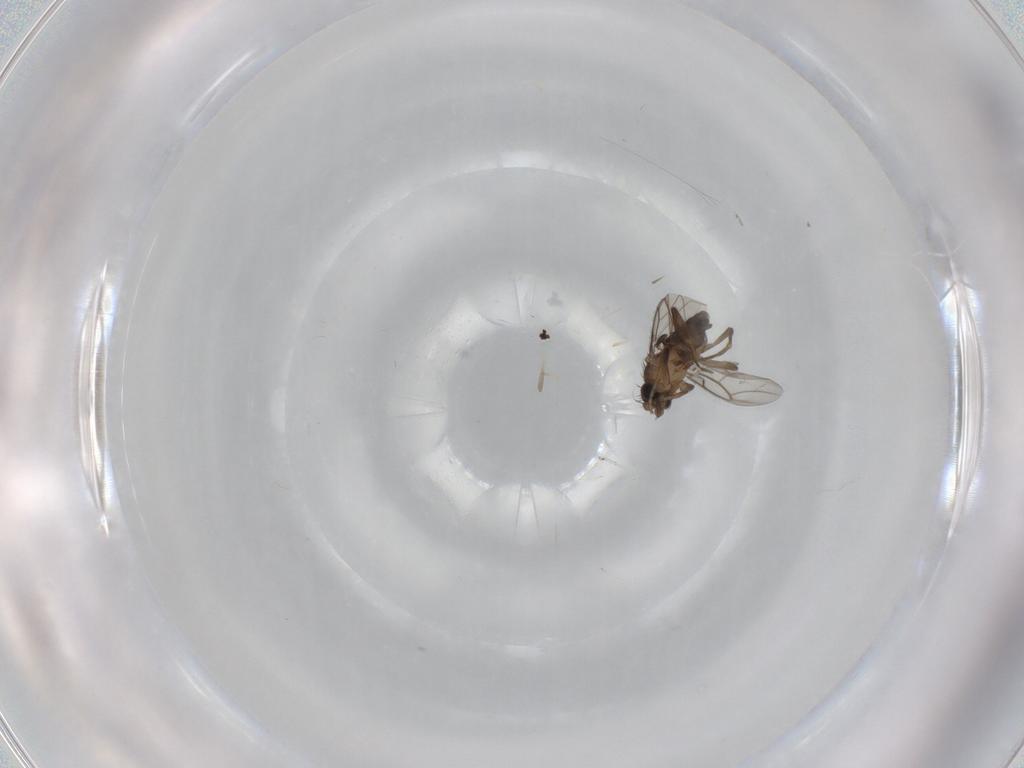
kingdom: Animalia
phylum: Arthropoda
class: Insecta
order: Diptera
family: Phoridae
